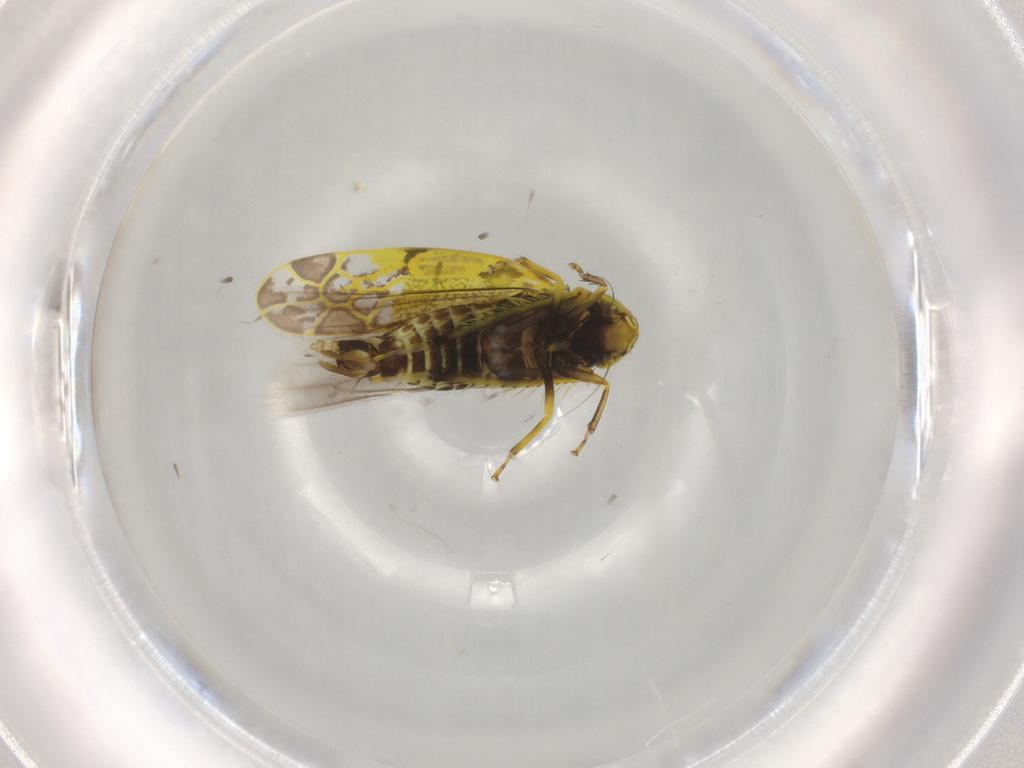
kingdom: Animalia
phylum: Arthropoda
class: Insecta
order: Hemiptera
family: Cicadellidae
